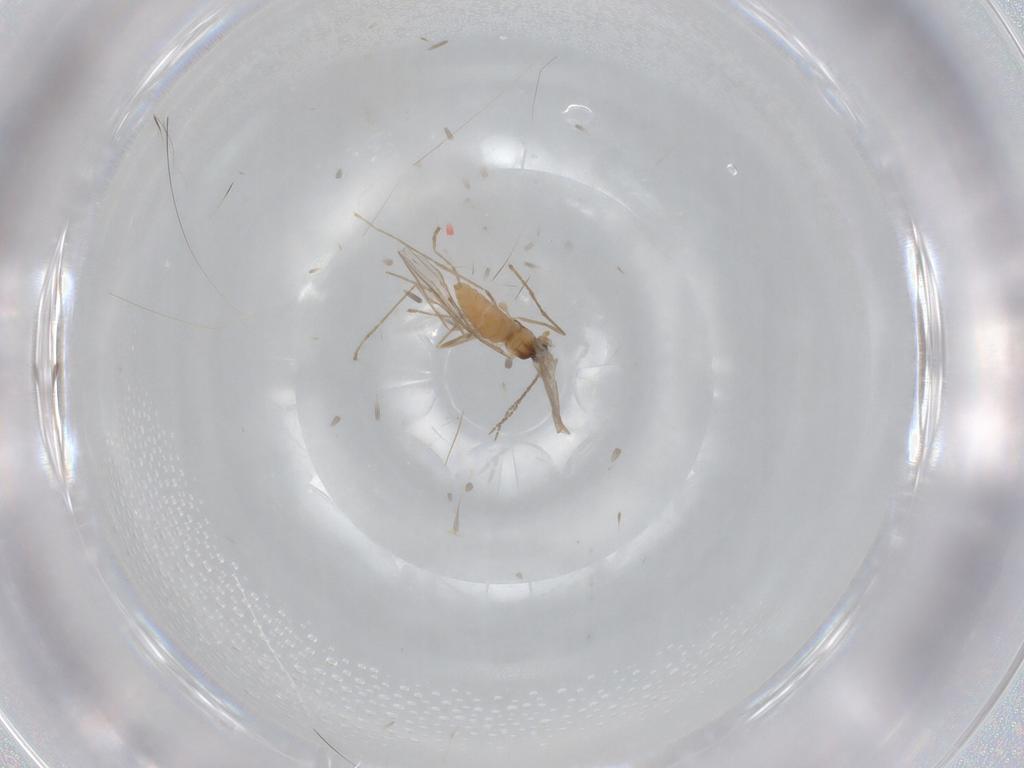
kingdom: Animalia
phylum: Arthropoda
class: Insecta
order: Diptera
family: Cecidomyiidae
